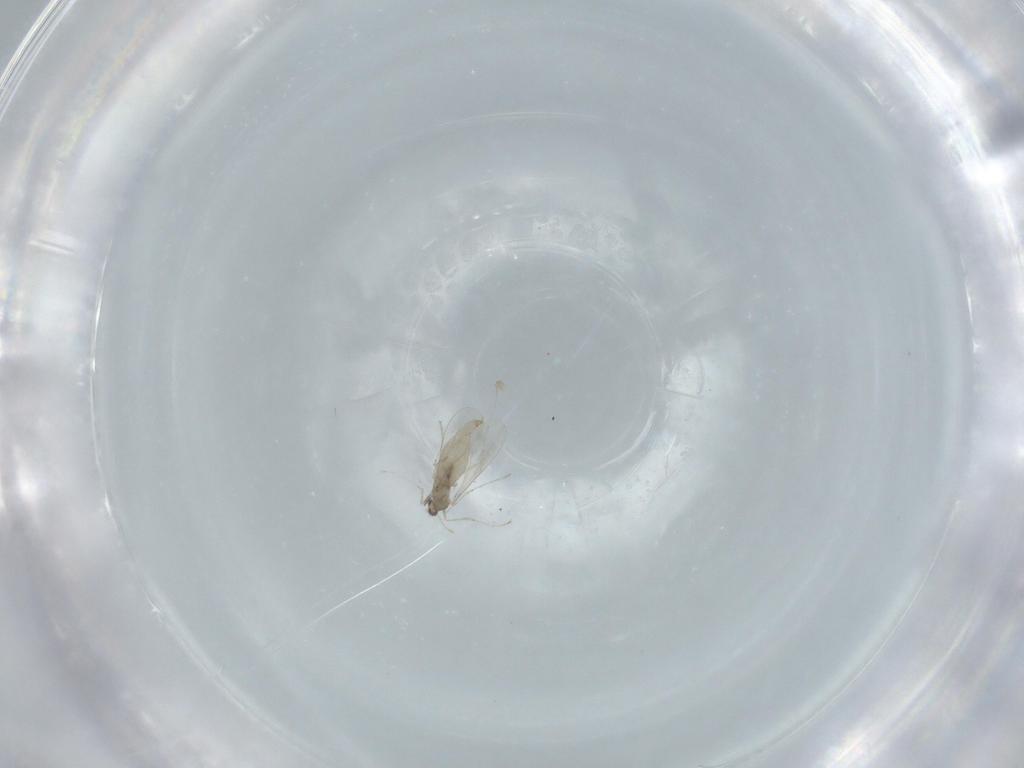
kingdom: Animalia
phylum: Arthropoda
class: Insecta
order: Diptera
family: Cecidomyiidae
